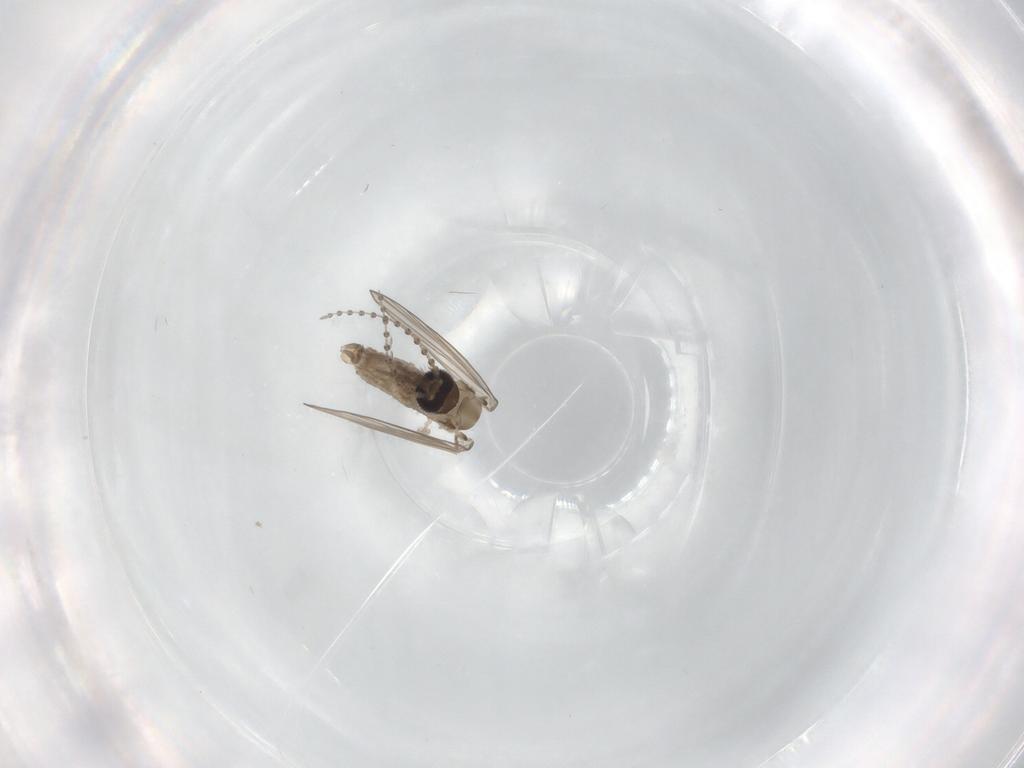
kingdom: Animalia
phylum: Arthropoda
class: Insecta
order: Diptera
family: Psychodidae
